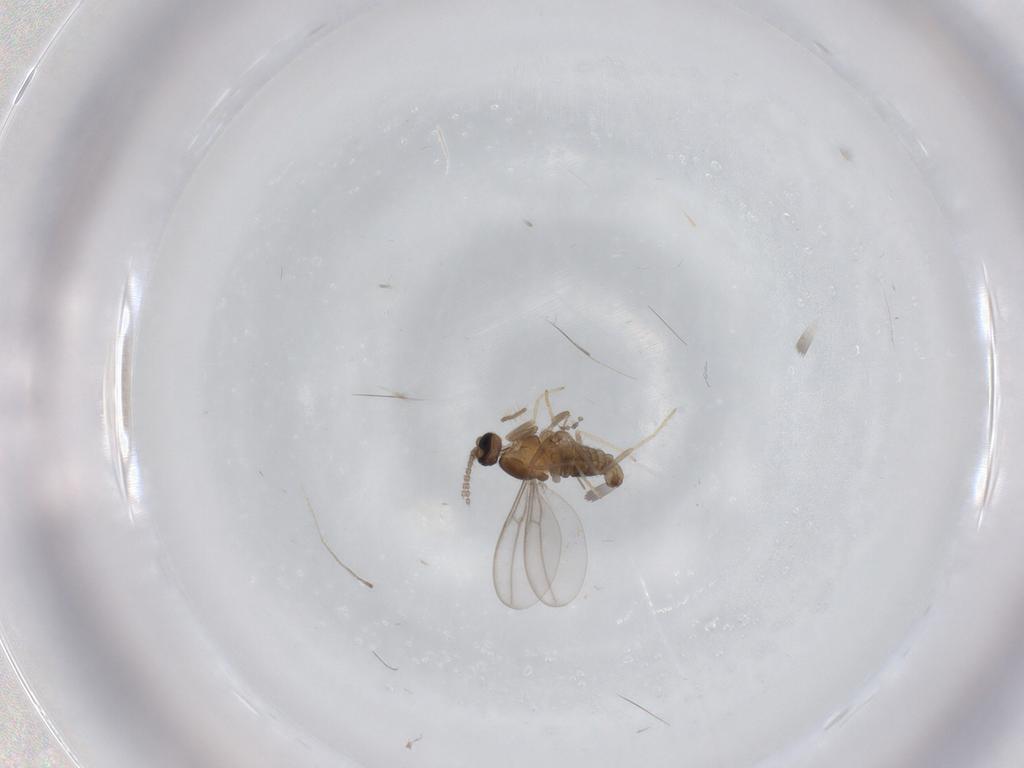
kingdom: Animalia
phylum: Arthropoda
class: Insecta
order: Diptera
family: Cecidomyiidae
